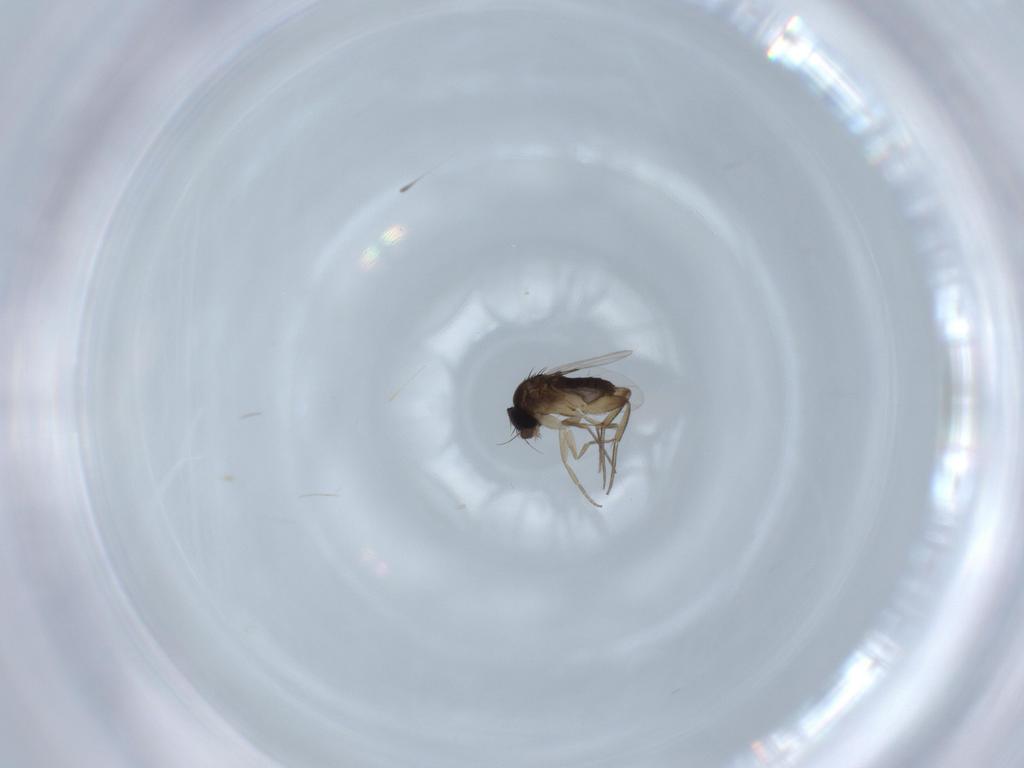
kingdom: Animalia
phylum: Arthropoda
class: Insecta
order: Diptera
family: Phoridae
